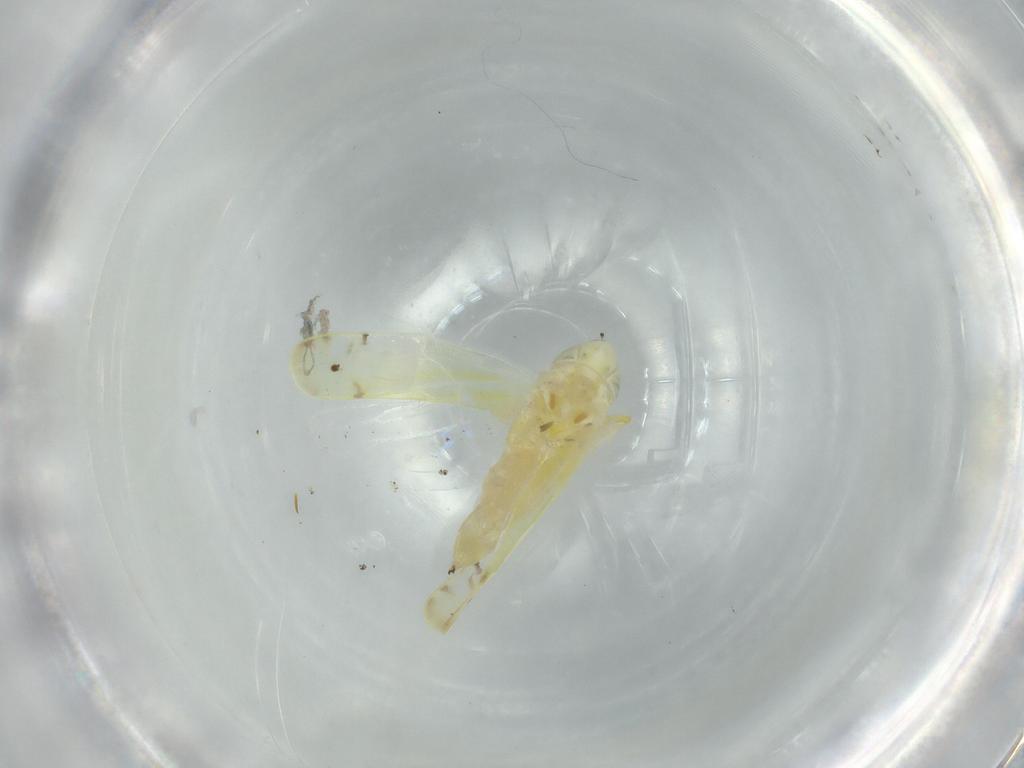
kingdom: Animalia
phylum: Arthropoda
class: Insecta
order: Hemiptera
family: Cicadellidae
